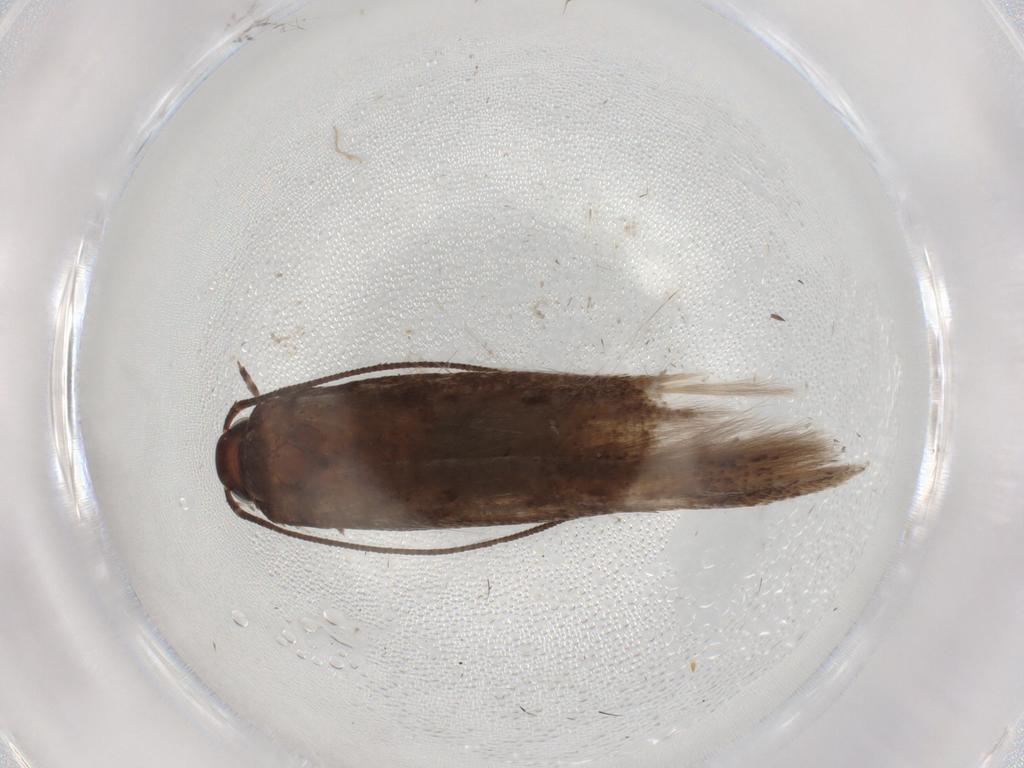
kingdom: Animalia
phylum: Arthropoda
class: Insecta
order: Lepidoptera
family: Gelechiidae
